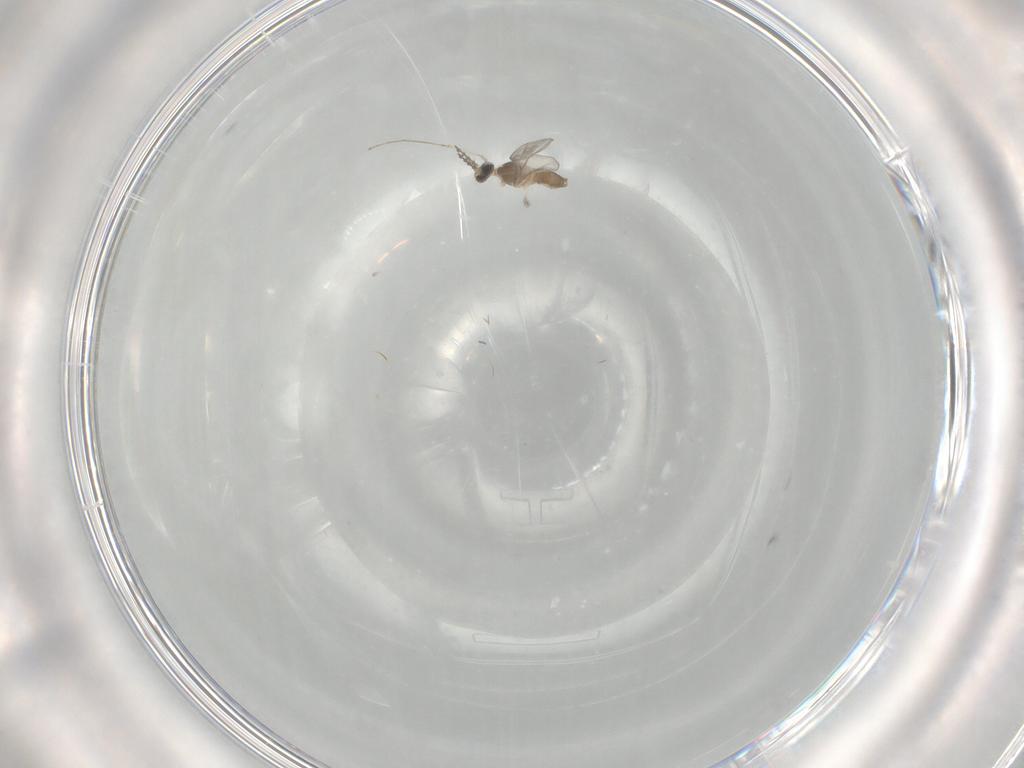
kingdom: Animalia
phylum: Arthropoda
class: Insecta
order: Diptera
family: Cecidomyiidae
